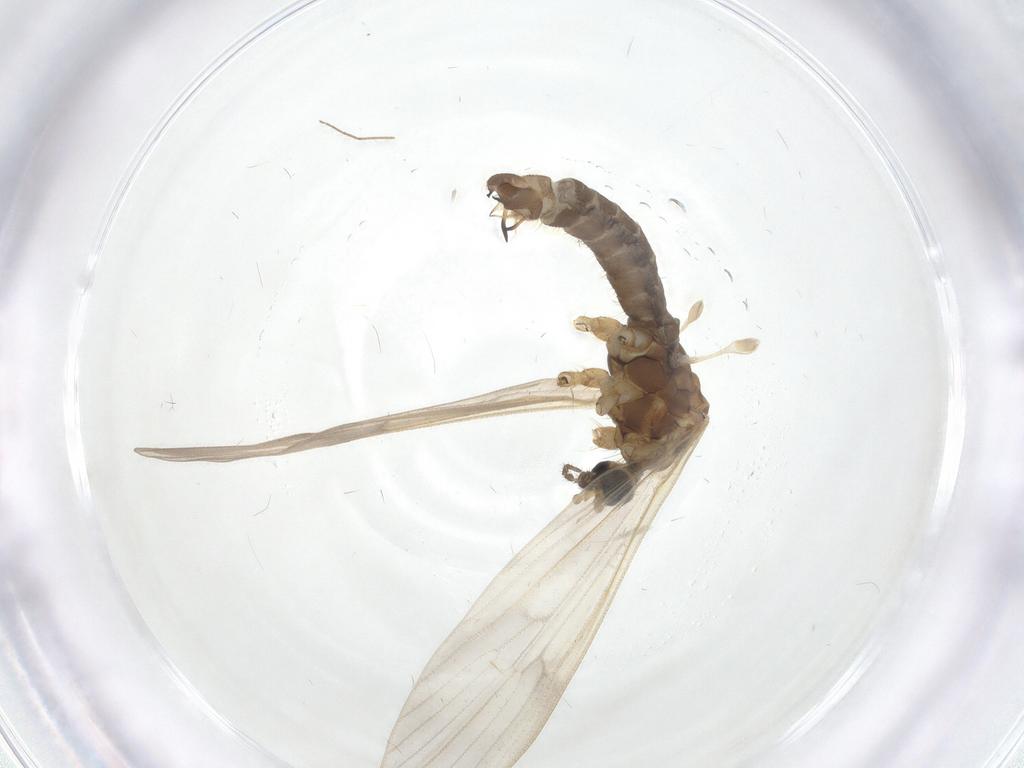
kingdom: Animalia
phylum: Arthropoda
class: Insecta
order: Diptera
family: Limoniidae
